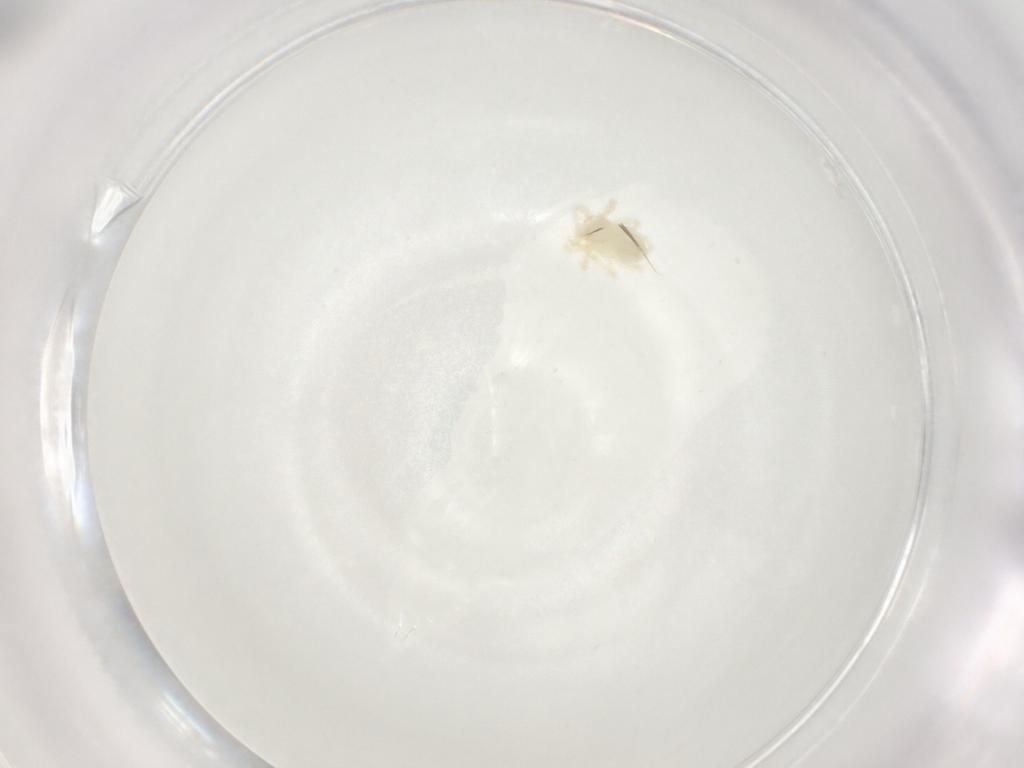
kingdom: Animalia
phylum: Arthropoda
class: Arachnida
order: Trombidiformes
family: Anystidae
